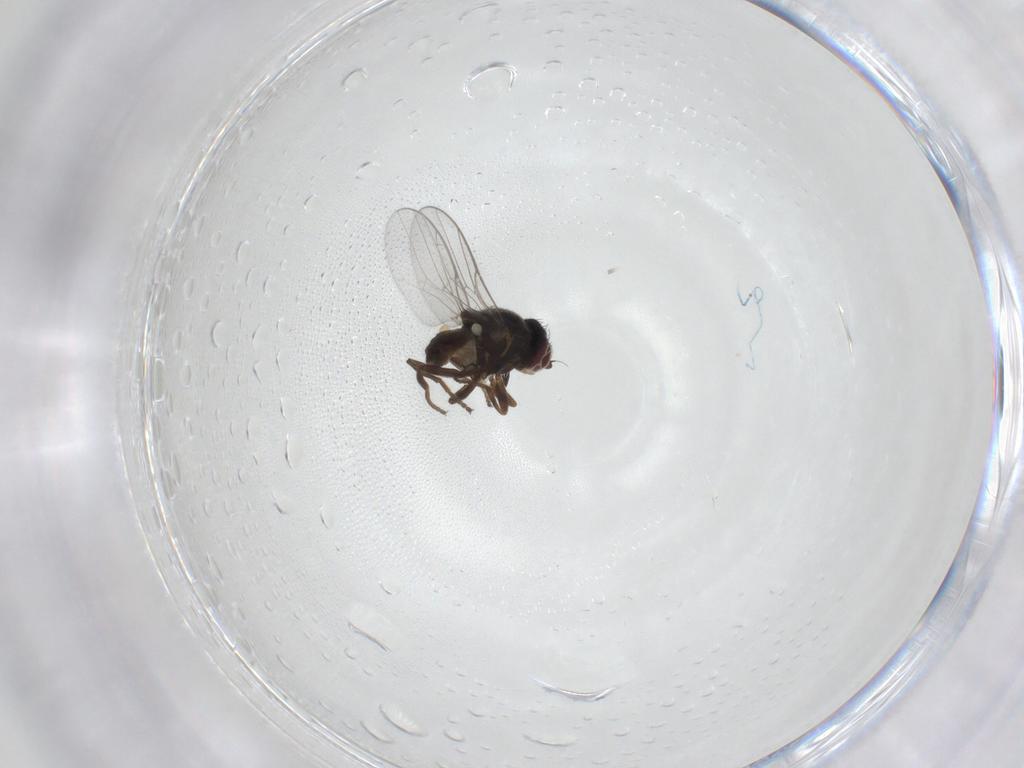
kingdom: Animalia
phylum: Arthropoda
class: Insecta
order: Diptera
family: Chloropidae
